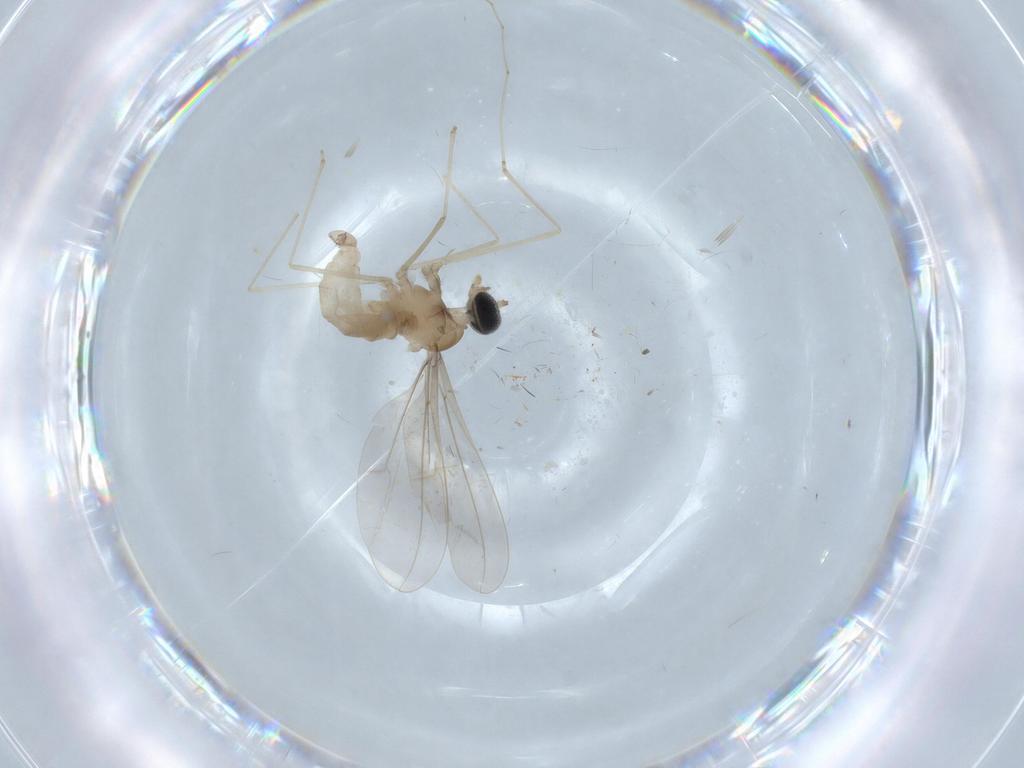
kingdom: Animalia
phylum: Arthropoda
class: Insecta
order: Diptera
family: Cecidomyiidae
